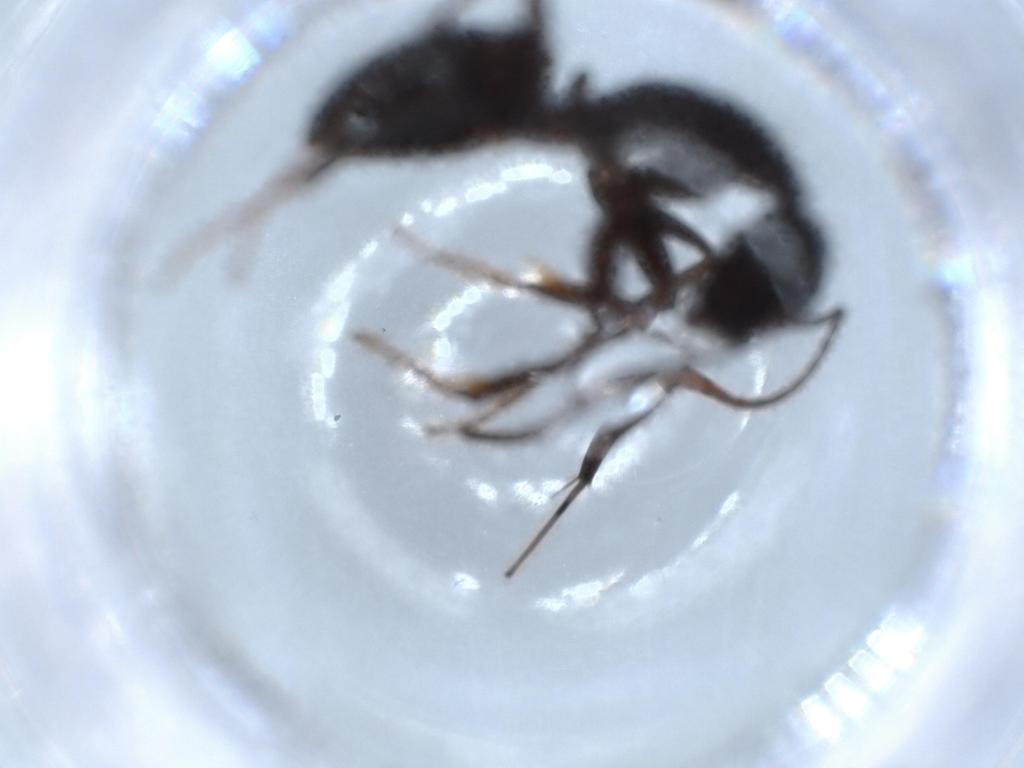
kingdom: Animalia
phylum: Arthropoda
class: Insecta
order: Hymenoptera
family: Formicidae
